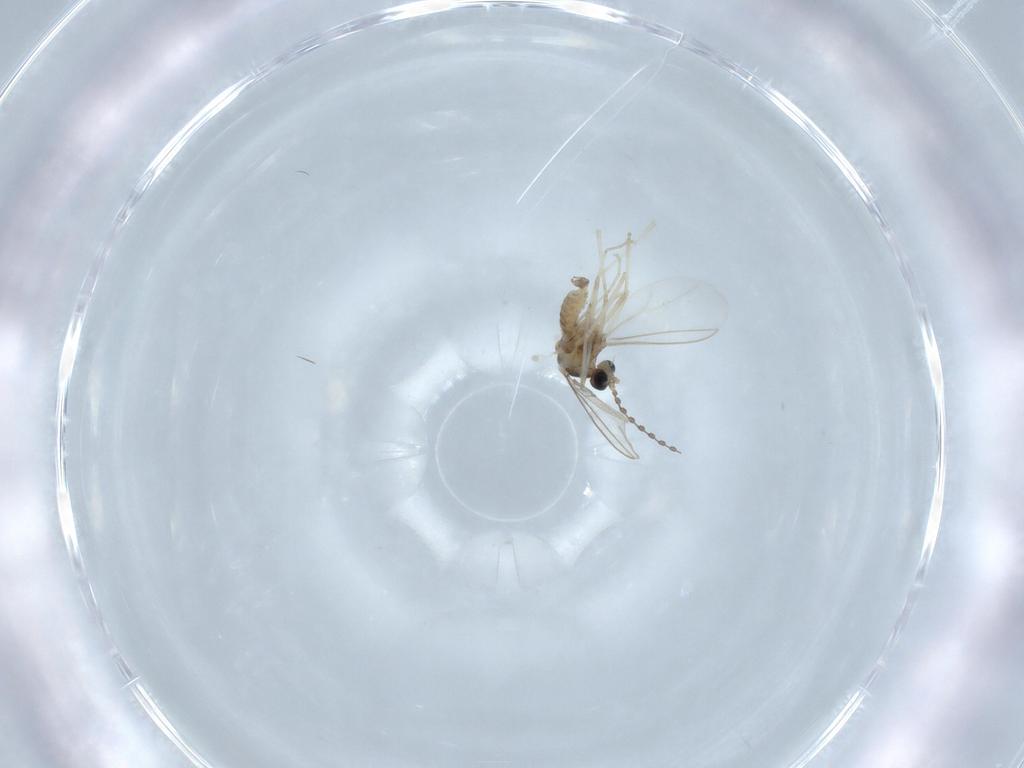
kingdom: Animalia
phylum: Arthropoda
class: Insecta
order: Diptera
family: Cecidomyiidae
